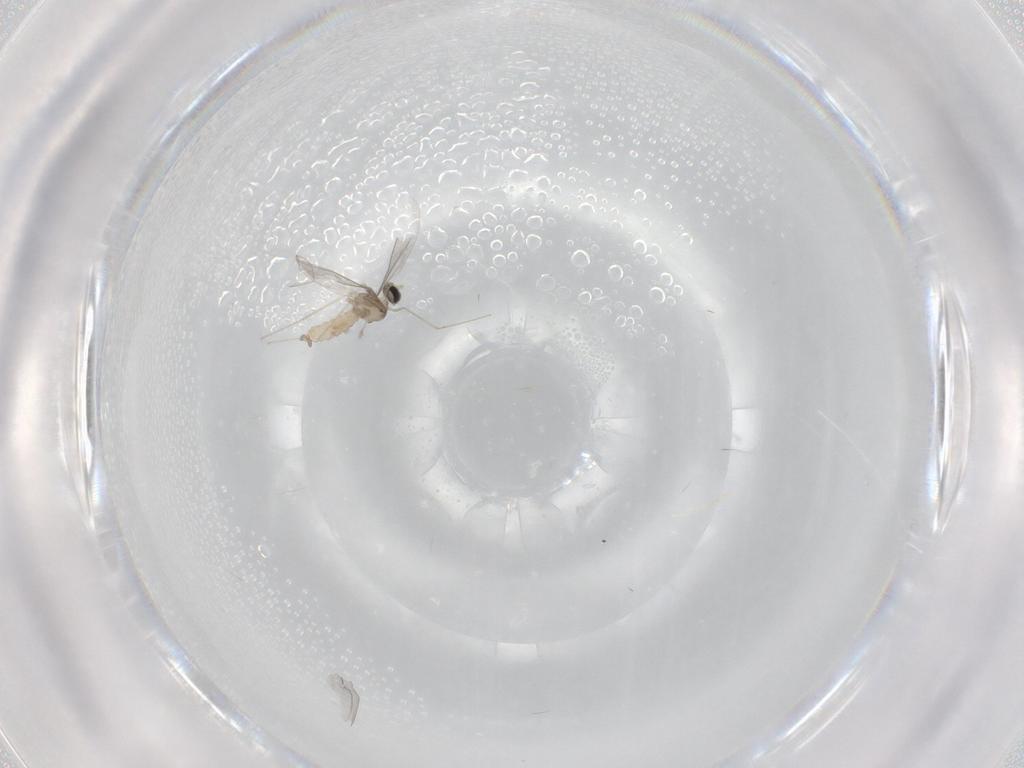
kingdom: Animalia
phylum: Arthropoda
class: Insecta
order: Diptera
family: Cecidomyiidae
